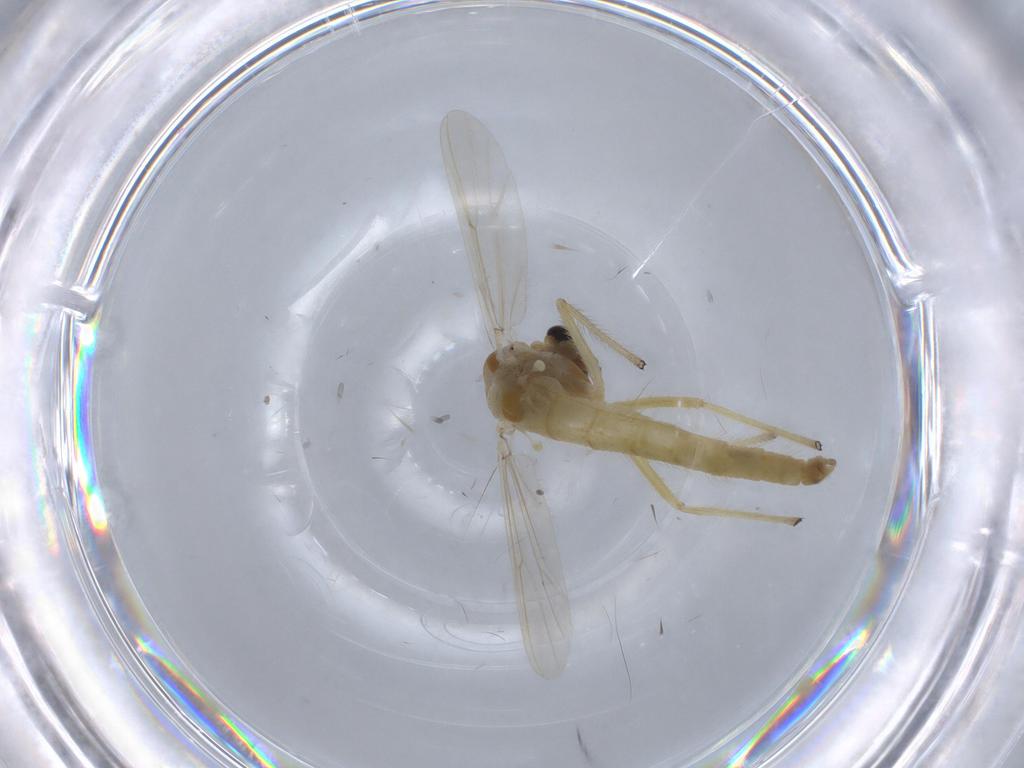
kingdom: Animalia
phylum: Arthropoda
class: Insecta
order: Diptera
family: Chironomidae
